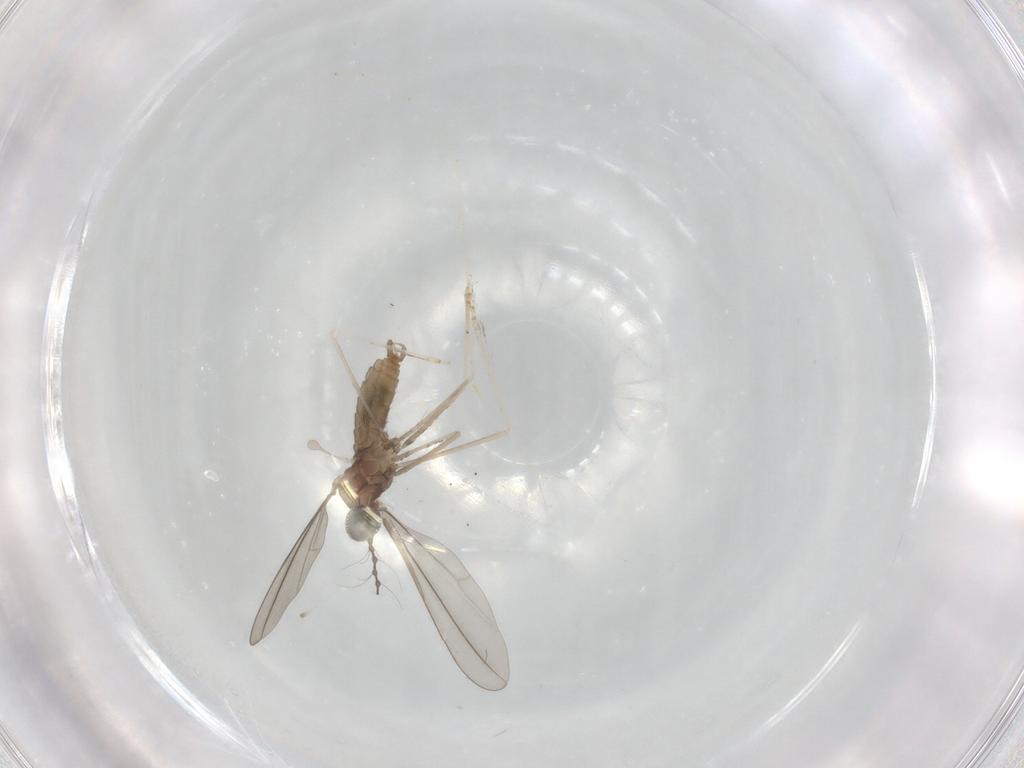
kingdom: Animalia
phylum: Arthropoda
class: Insecta
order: Diptera
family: Cecidomyiidae
